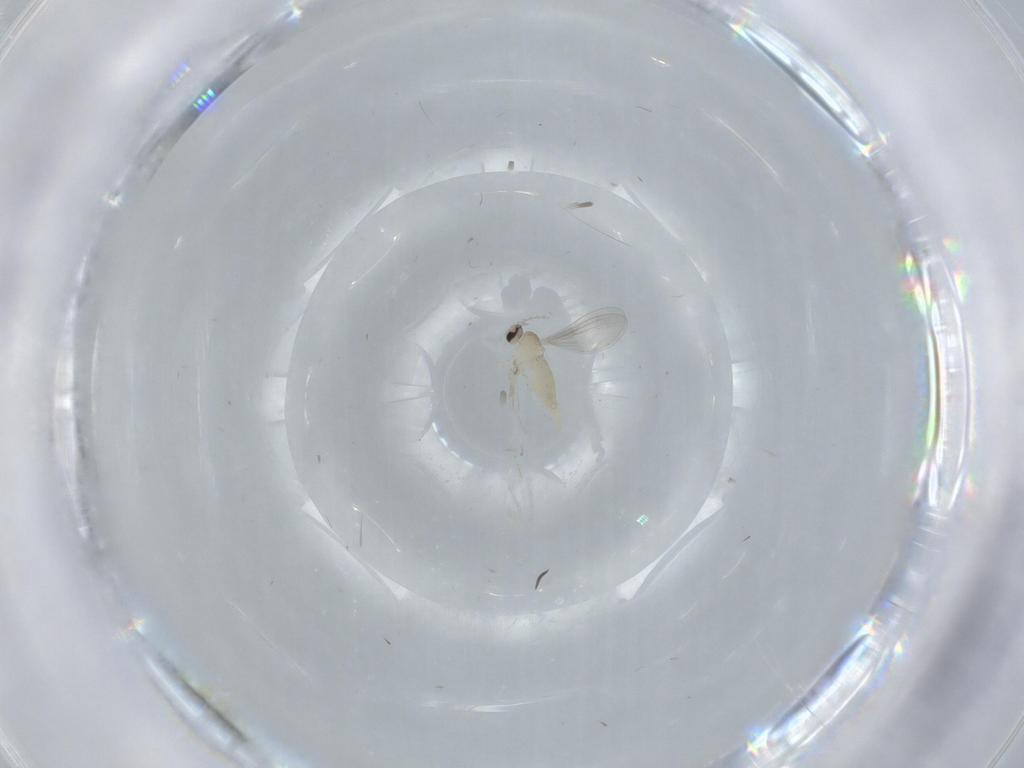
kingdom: Animalia
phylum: Arthropoda
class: Insecta
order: Diptera
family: Cecidomyiidae
